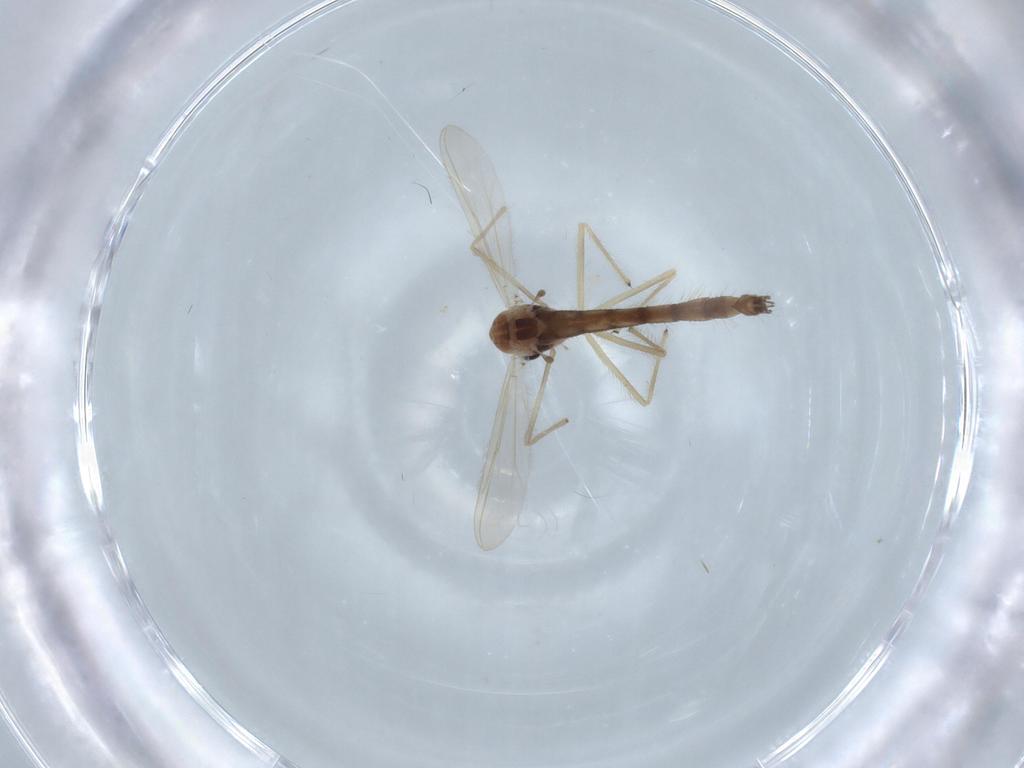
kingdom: Animalia
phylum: Arthropoda
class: Insecta
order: Diptera
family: Chironomidae
